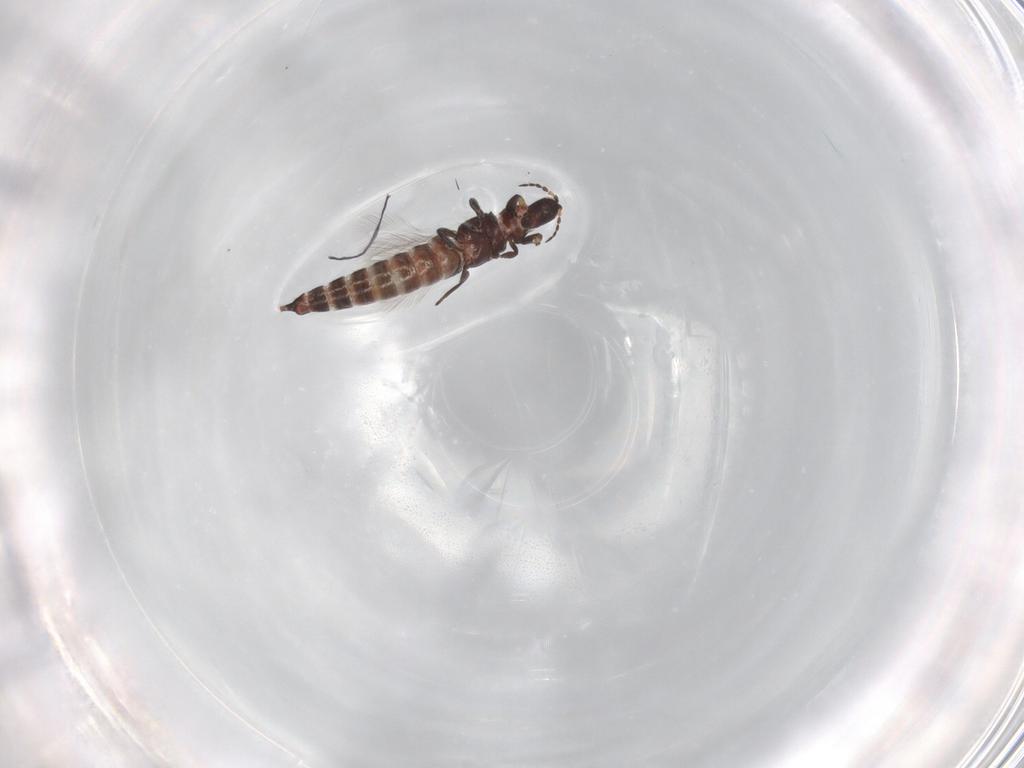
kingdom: Animalia
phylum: Arthropoda
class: Insecta
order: Thysanoptera
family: Phlaeothripidae
